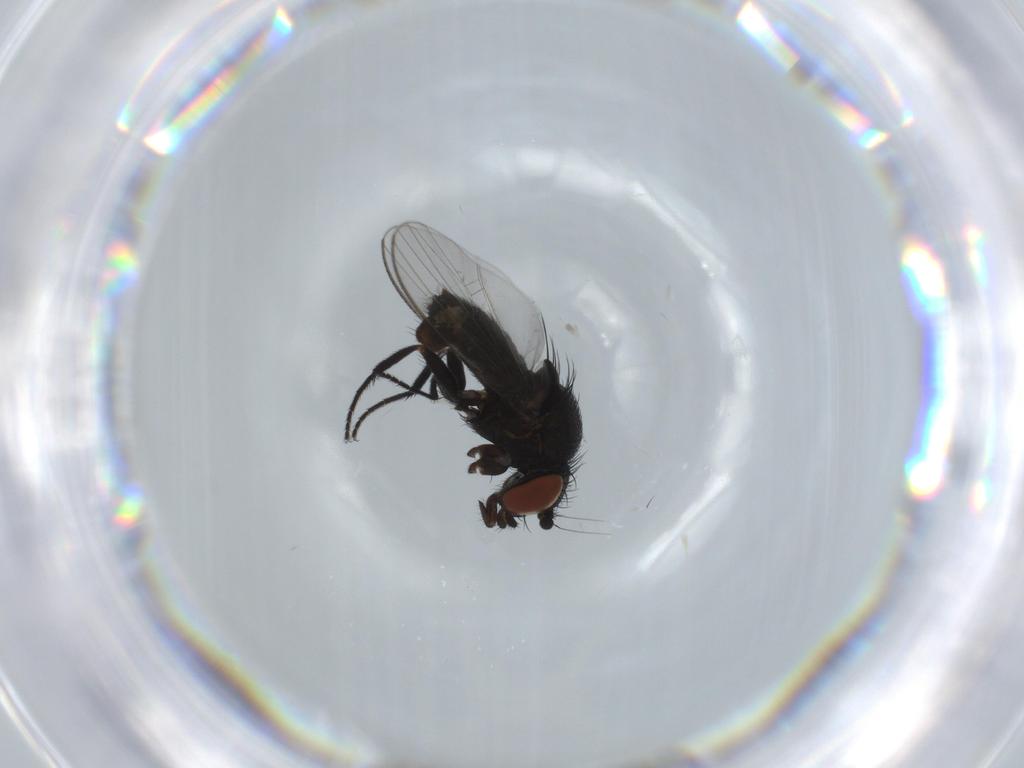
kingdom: Animalia
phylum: Arthropoda
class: Insecta
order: Diptera
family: Milichiidae
